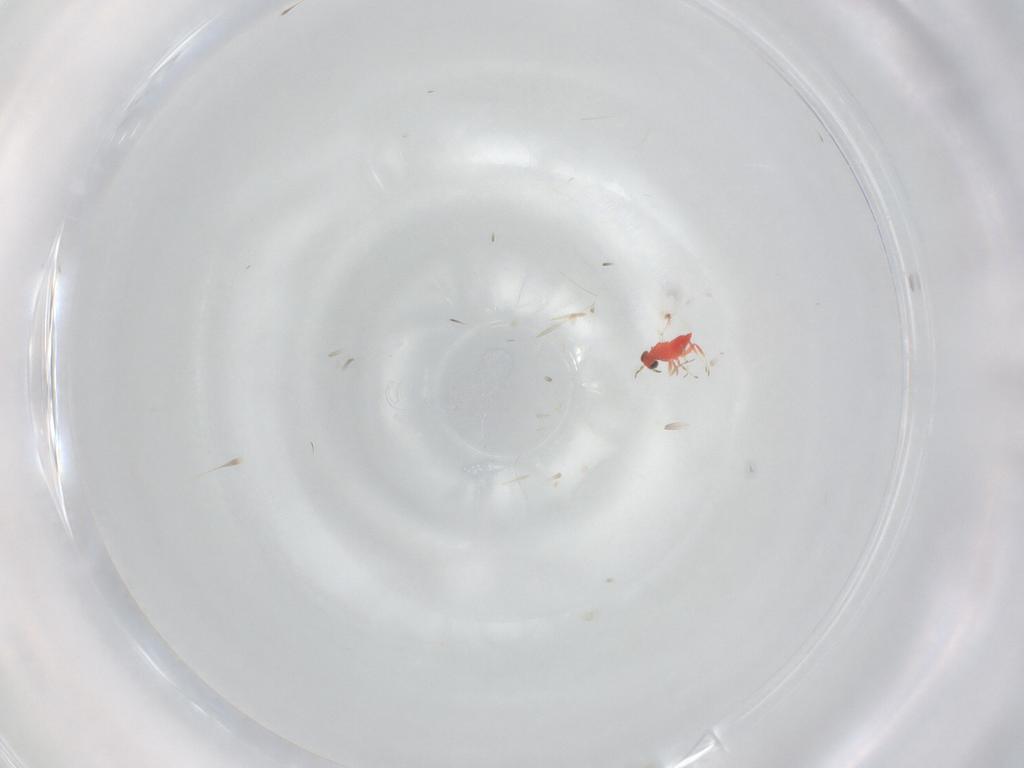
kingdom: Animalia
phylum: Arthropoda
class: Insecta
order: Hymenoptera
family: Trichogrammatidae
